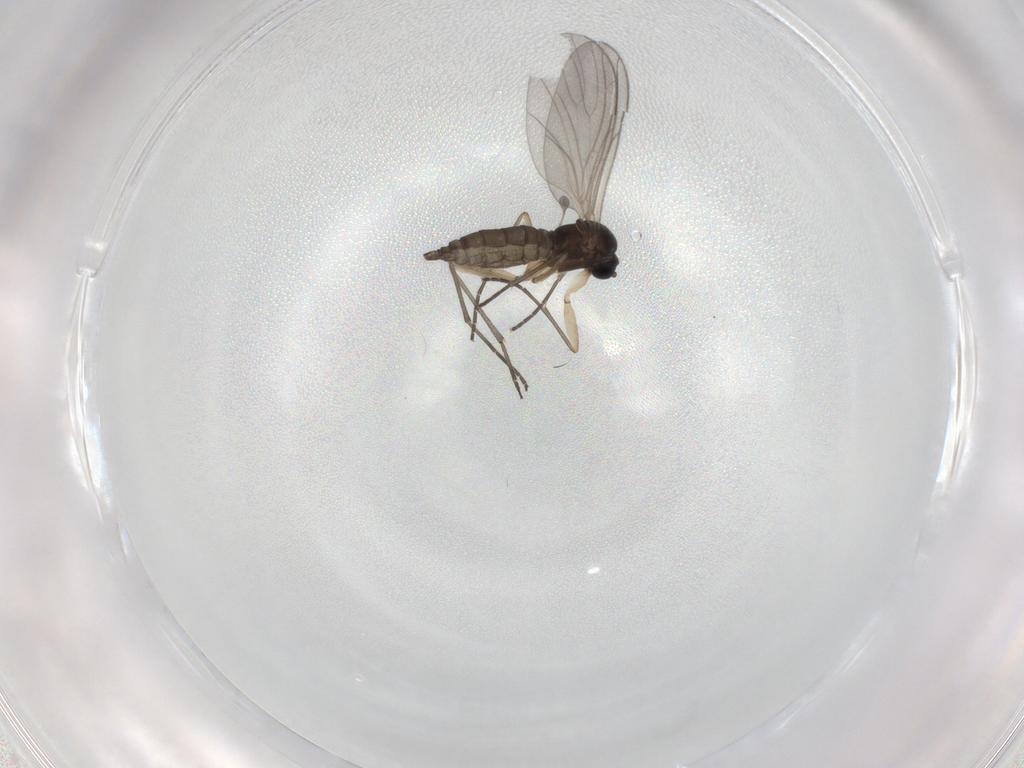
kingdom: Animalia
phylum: Arthropoda
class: Insecta
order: Diptera
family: Sciaridae
